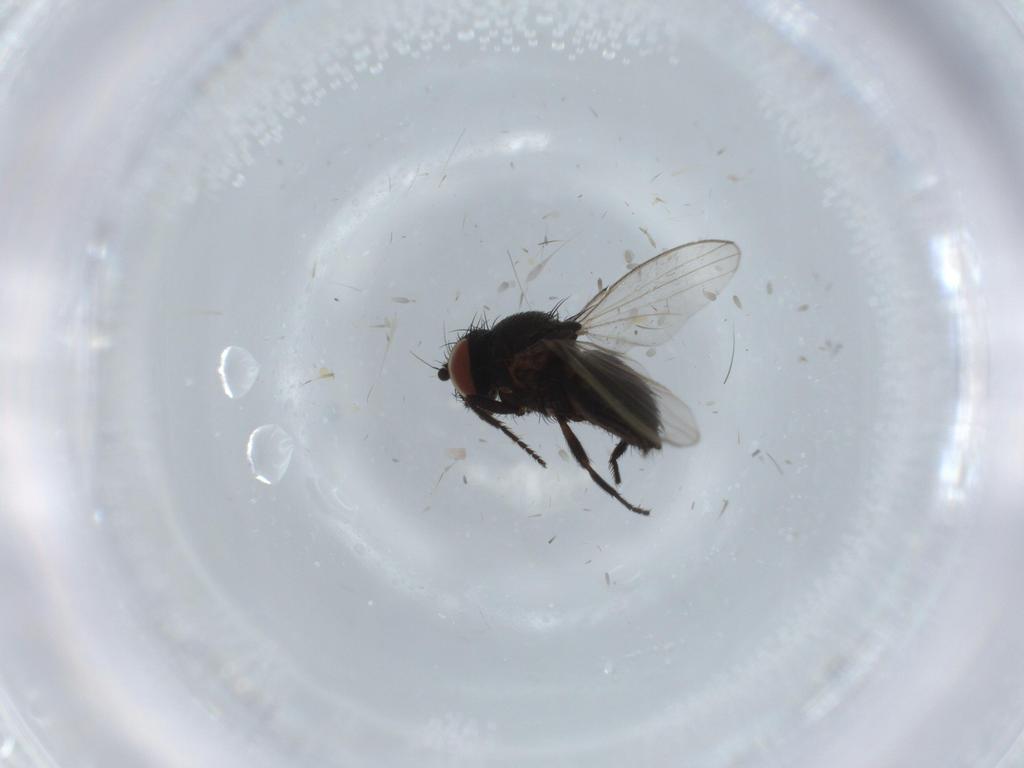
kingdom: Animalia
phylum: Arthropoda
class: Insecta
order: Diptera
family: Milichiidae
